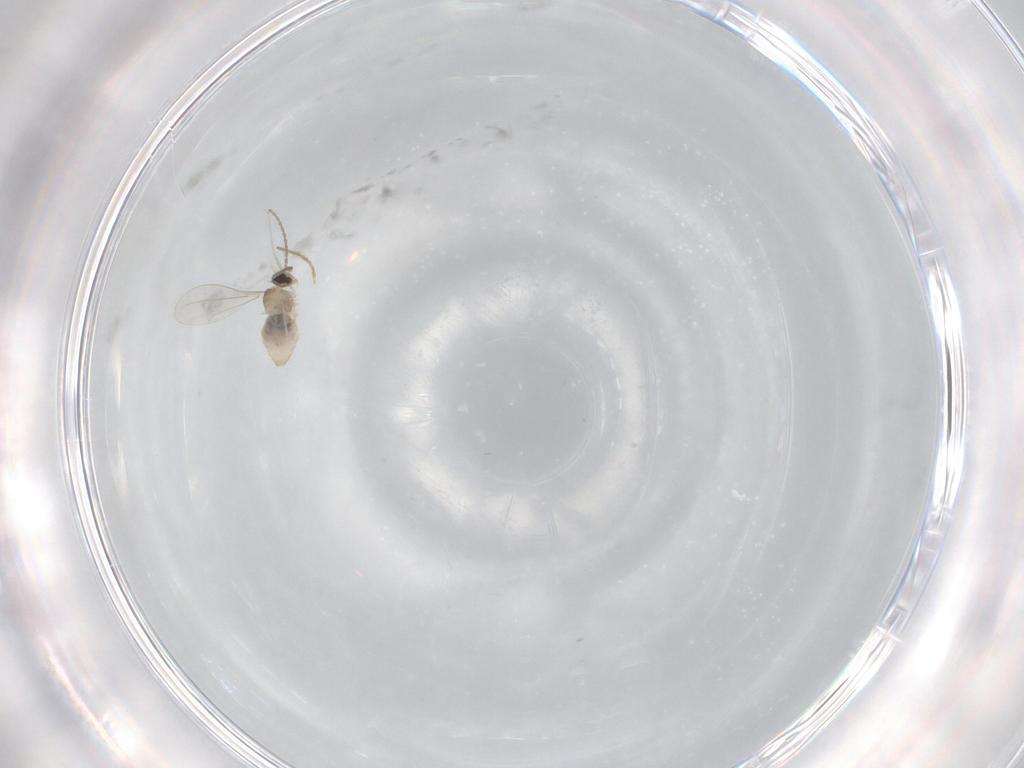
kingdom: Animalia
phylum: Arthropoda
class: Insecta
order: Diptera
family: Cecidomyiidae
